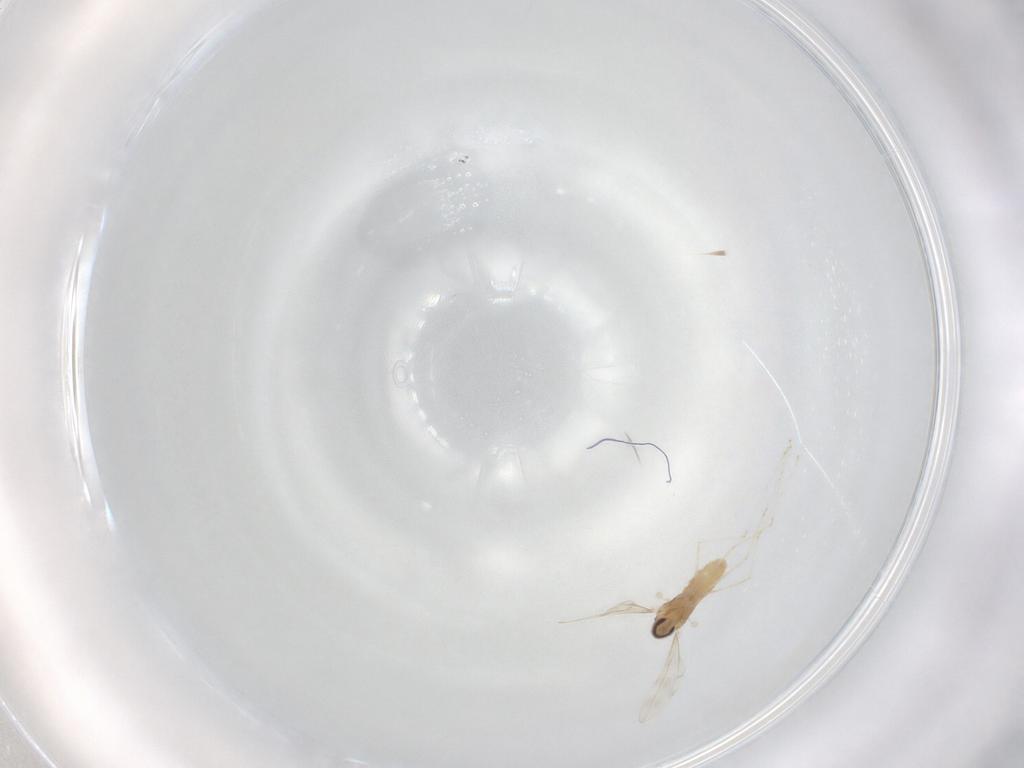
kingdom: Animalia
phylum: Arthropoda
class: Insecta
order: Diptera
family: Cecidomyiidae
